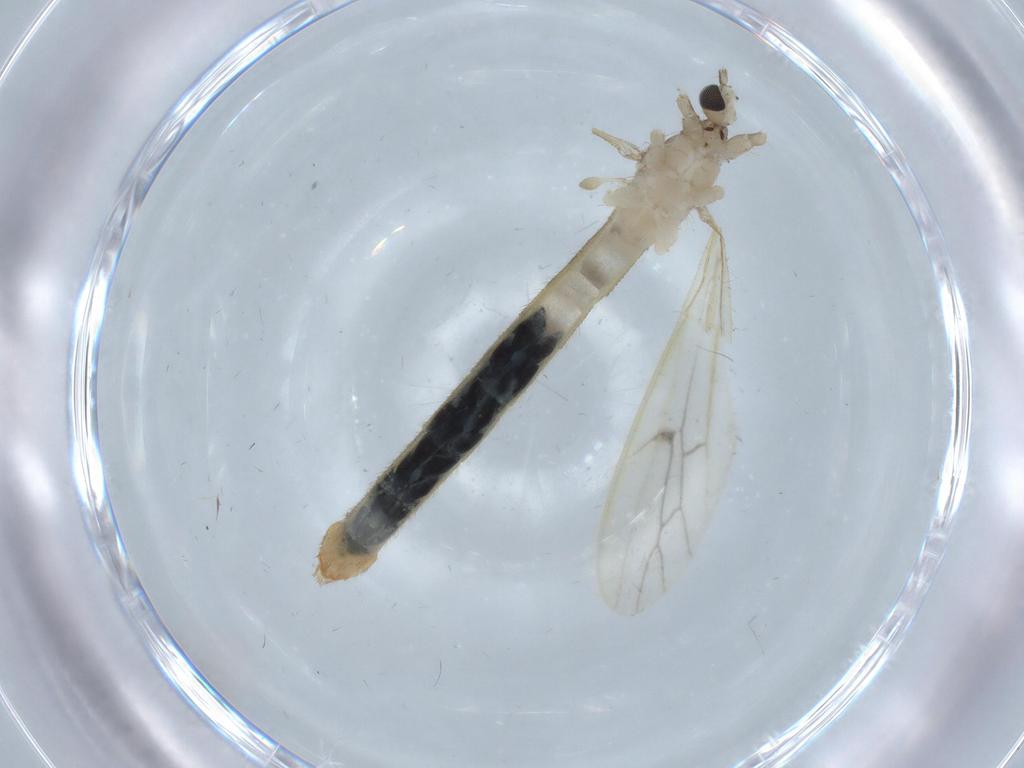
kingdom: Animalia
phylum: Arthropoda
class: Insecta
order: Diptera
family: Limoniidae
